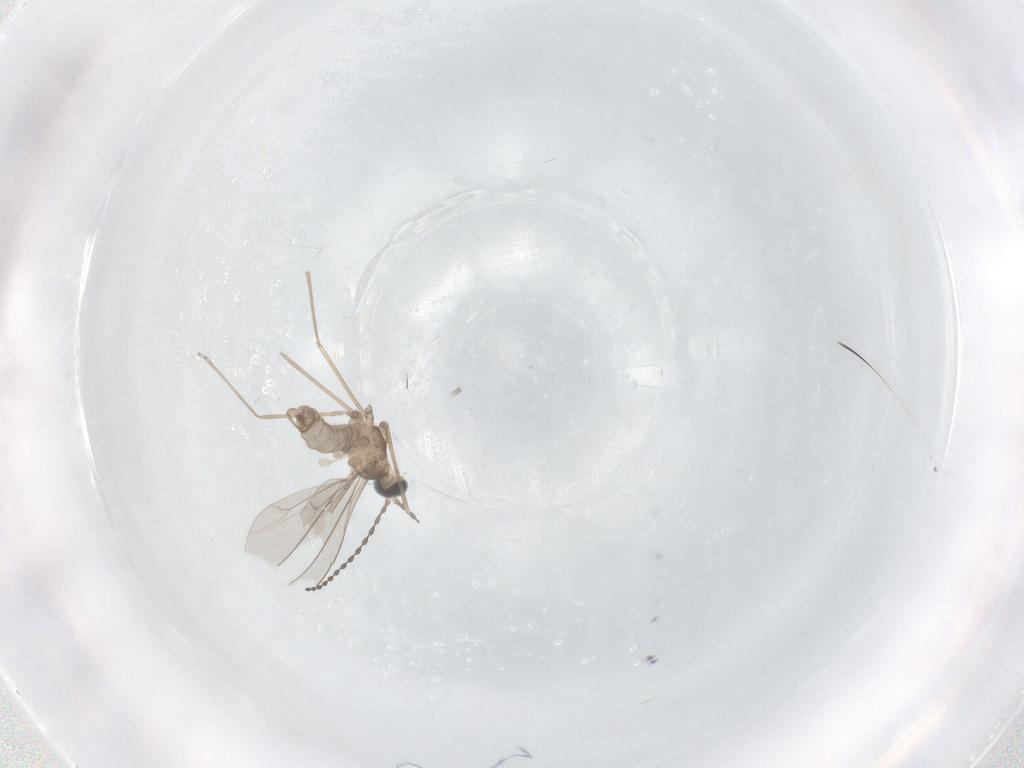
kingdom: Animalia
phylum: Arthropoda
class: Insecta
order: Diptera
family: Cecidomyiidae
